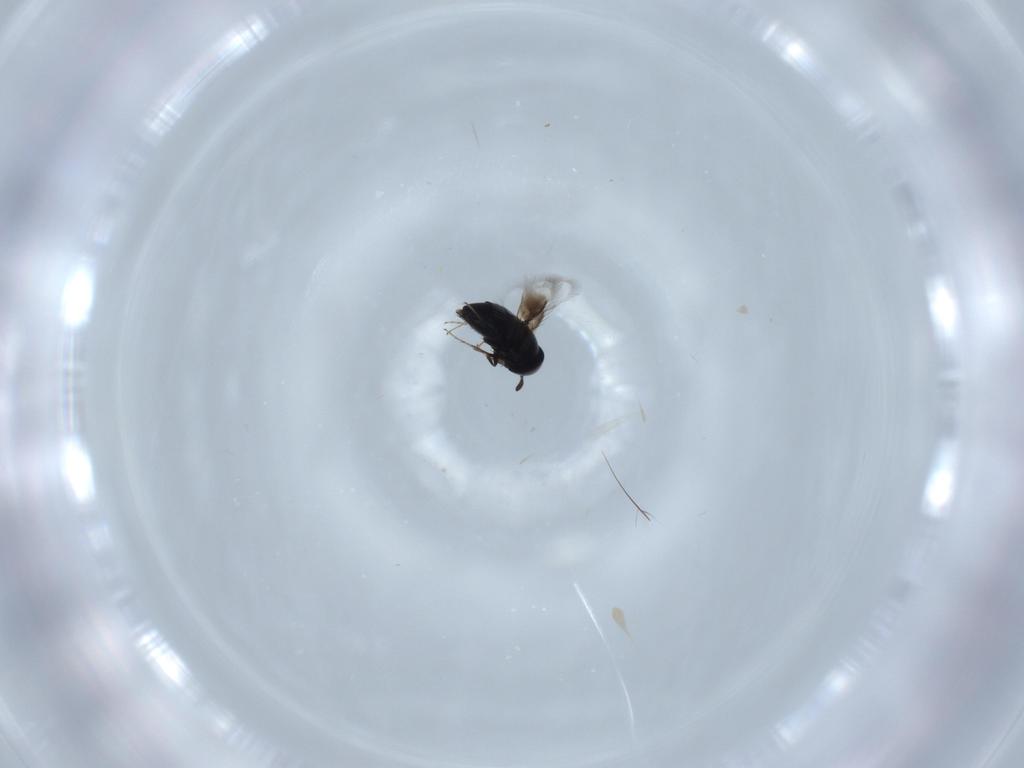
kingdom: Animalia
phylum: Arthropoda
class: Insecta
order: Hymenoptera
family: Signiphoridae
